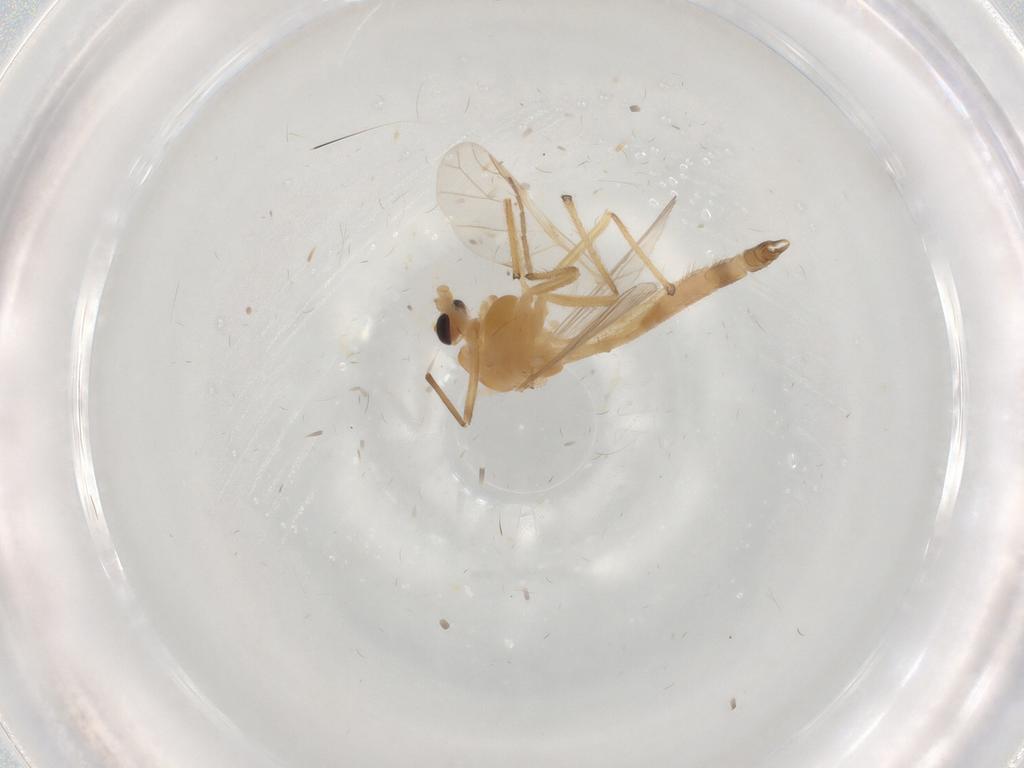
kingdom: Animalia
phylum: Arthropoda
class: Insecta
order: Diptera
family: Chironomidae
